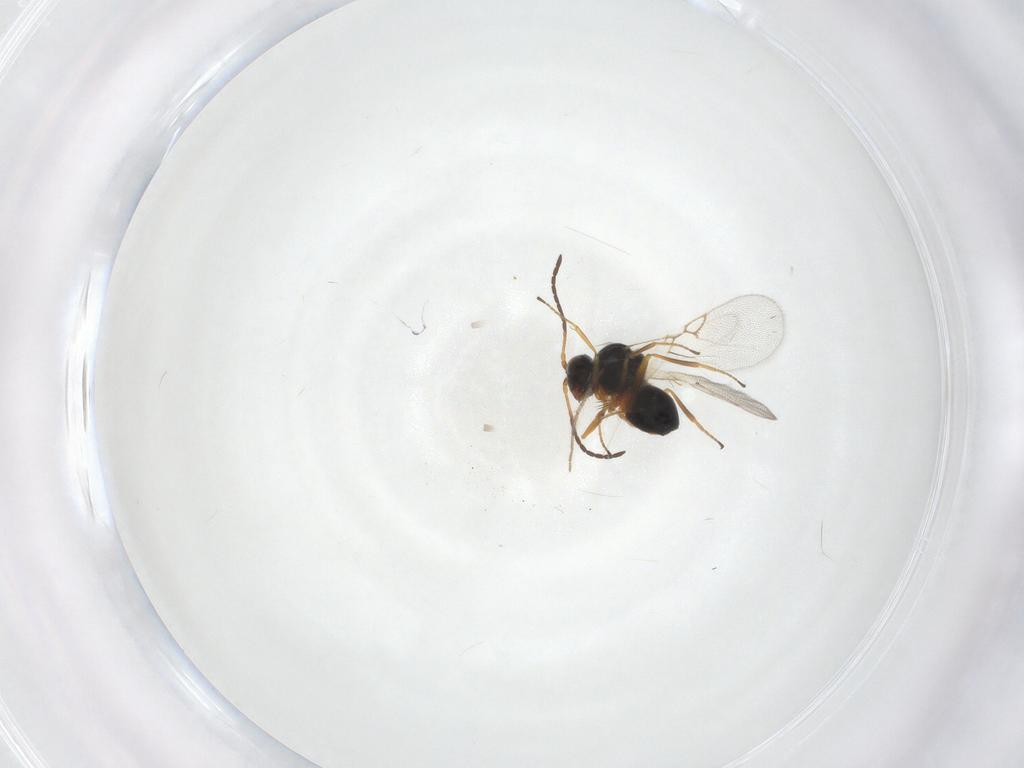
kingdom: Animalia
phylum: Arthropoda
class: Insecta
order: Hymenoptera
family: Figitidae
